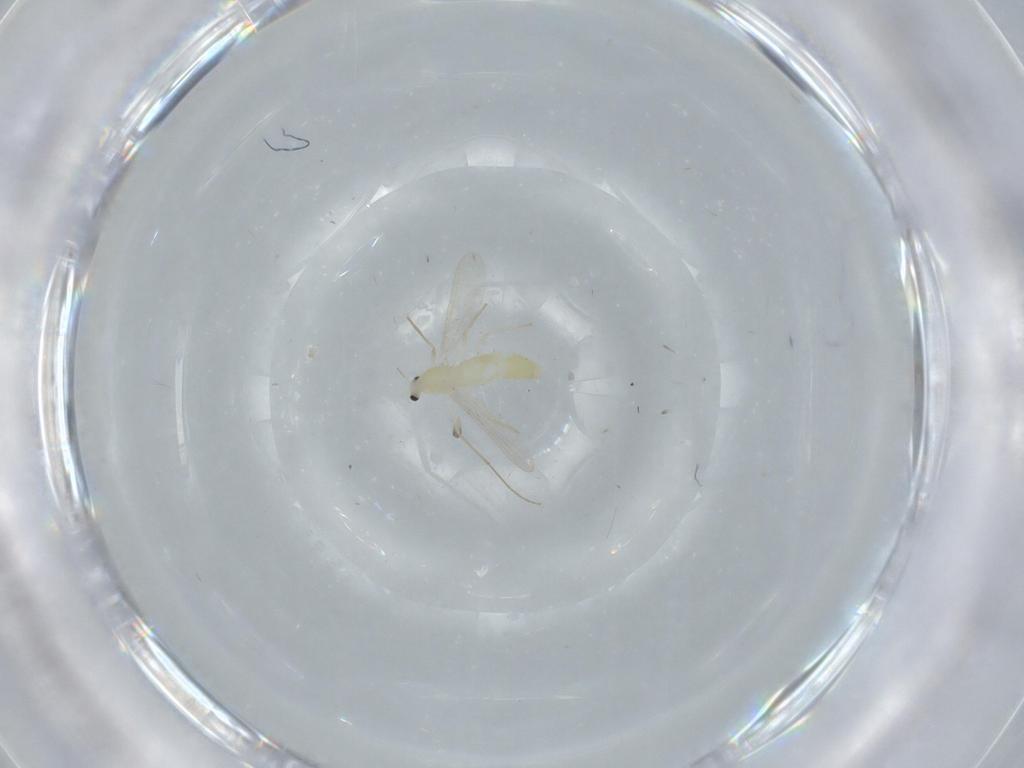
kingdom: Animalia
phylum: Arthropoda
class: Insecta
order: Diptera
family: Chironomidae
